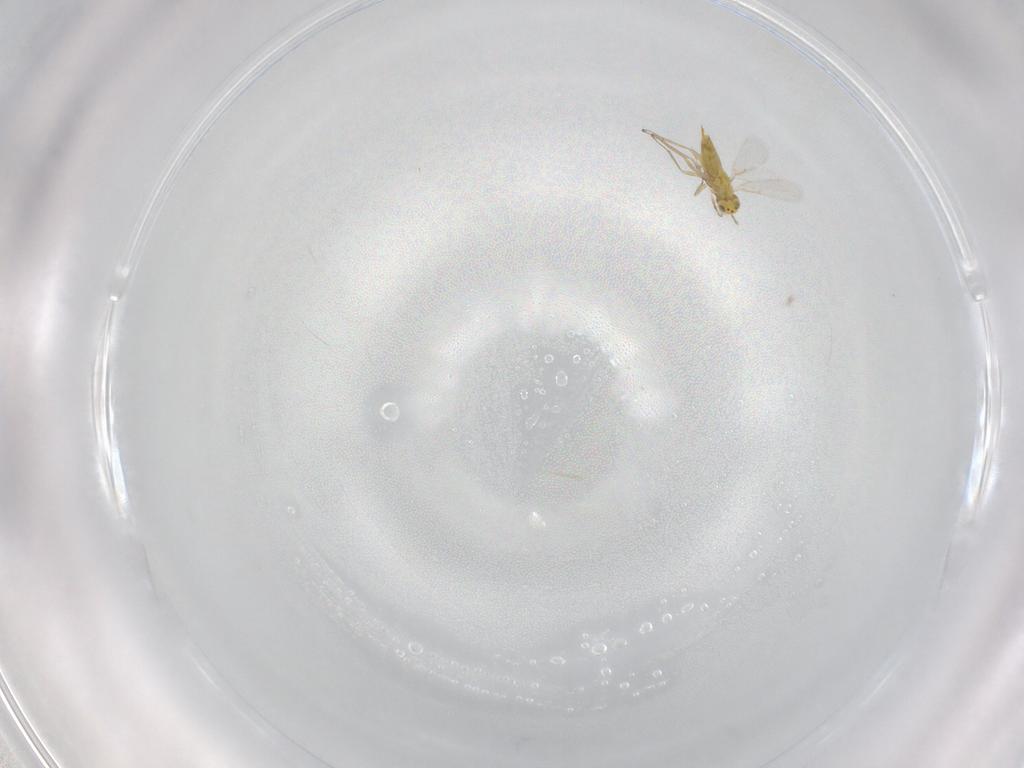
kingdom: Animalia
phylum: Arthropoda
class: Insecta
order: Hymenoptera
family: Aphelinidae
